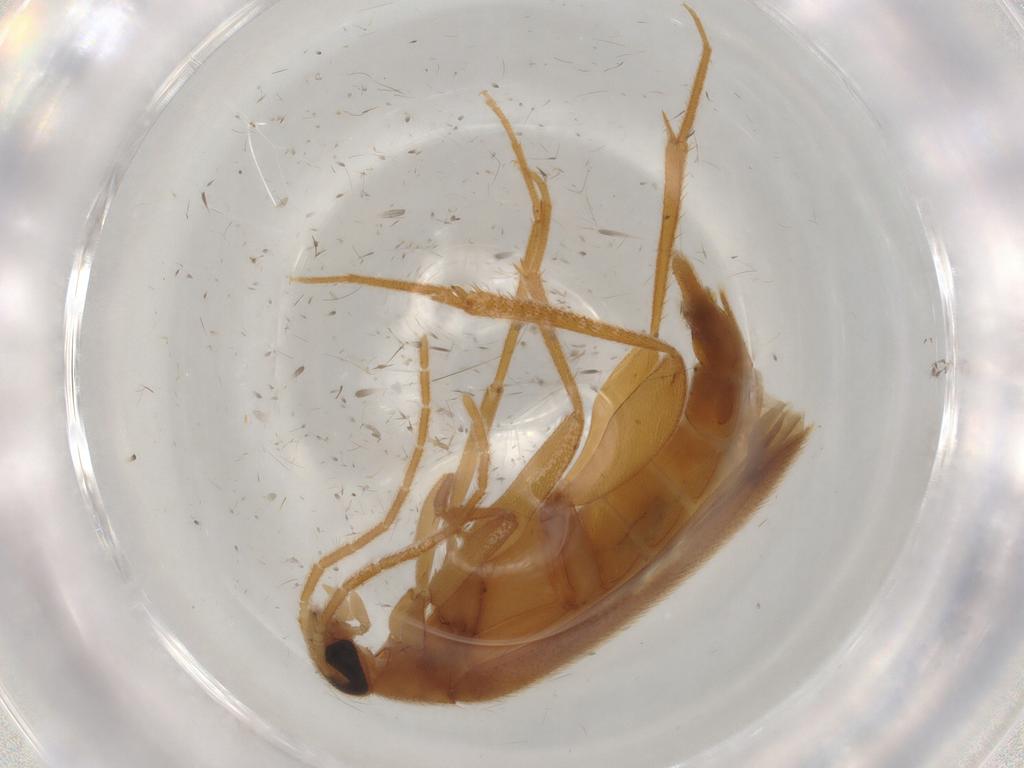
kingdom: Animalia
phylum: Arthropoda
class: Insecta
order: Coleoptera
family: Scraptiidae
